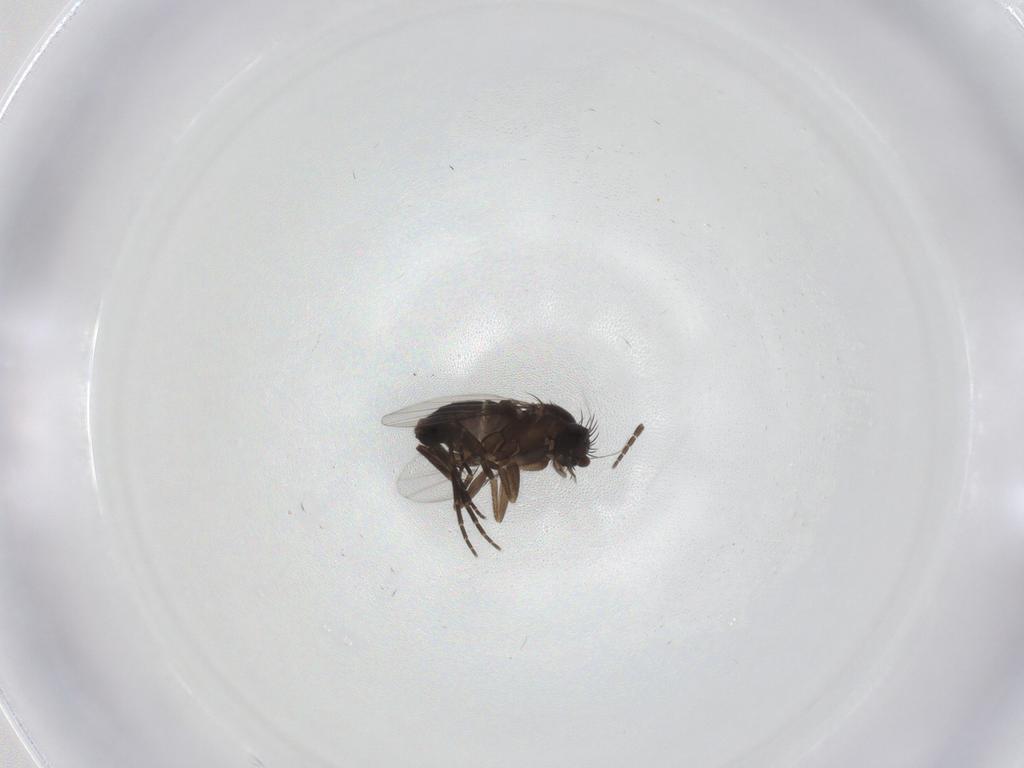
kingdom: Animalia
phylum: Arthropoda
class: Insecta
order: Diptera
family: Phoridae
